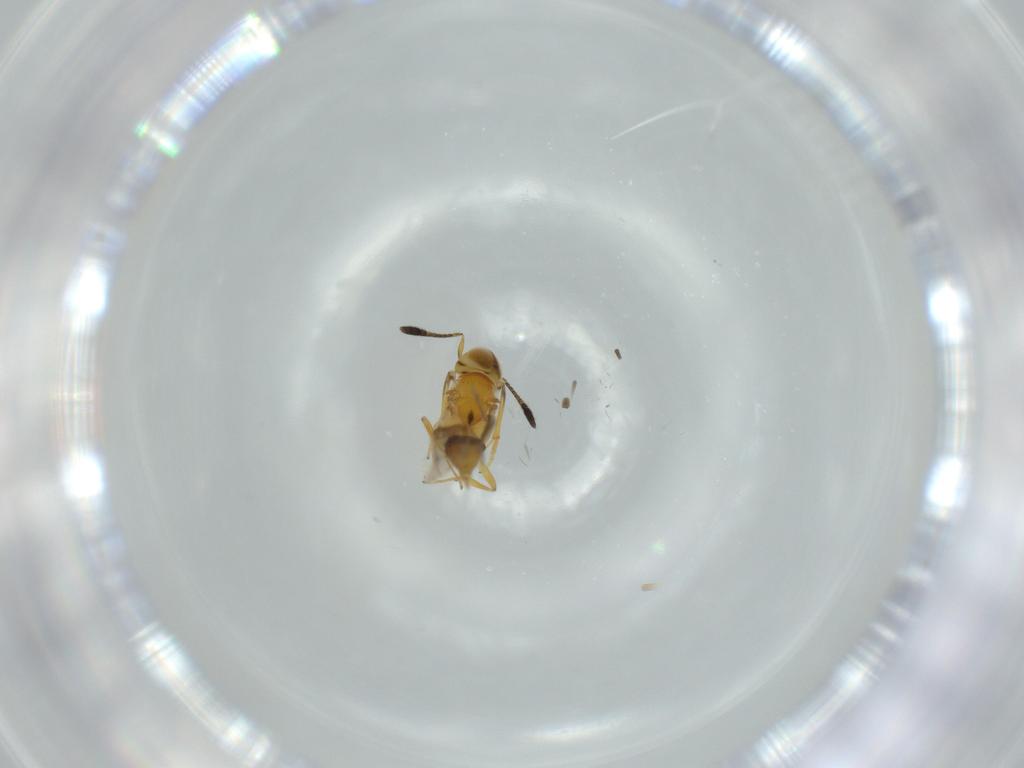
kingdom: Animalia
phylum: Arthropoda
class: Insecta
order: Hymenoptera
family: Encyrtidae
